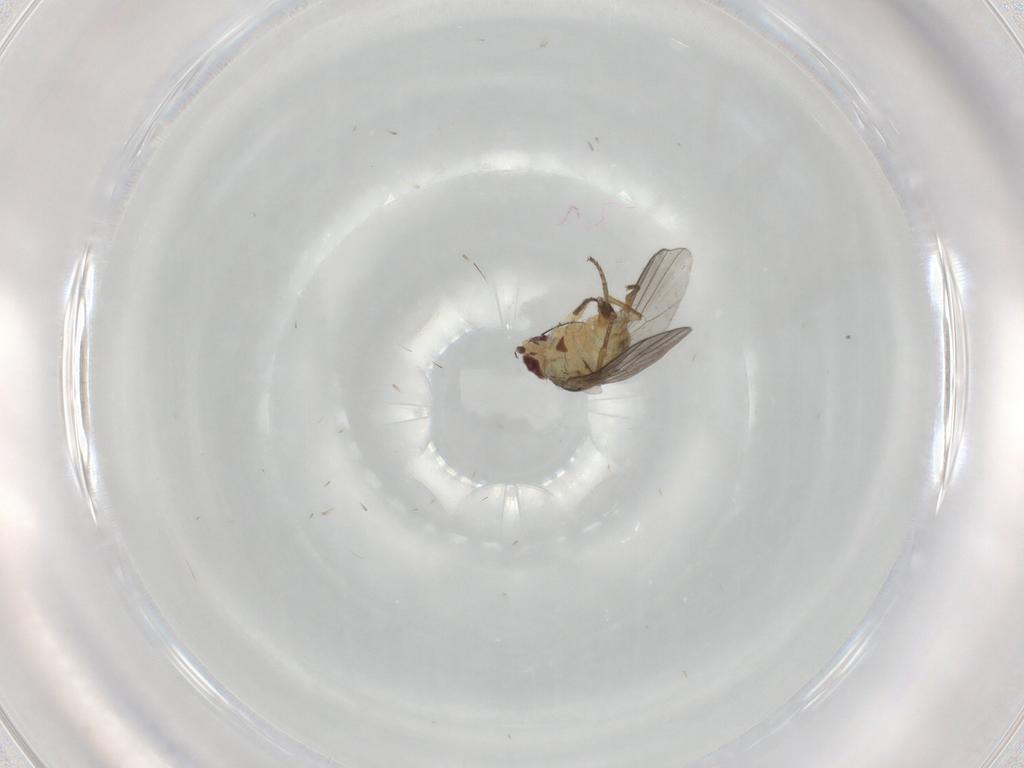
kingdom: Animalia
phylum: Arthropoda
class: Insecta
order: Diptera
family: Agromyzidae
